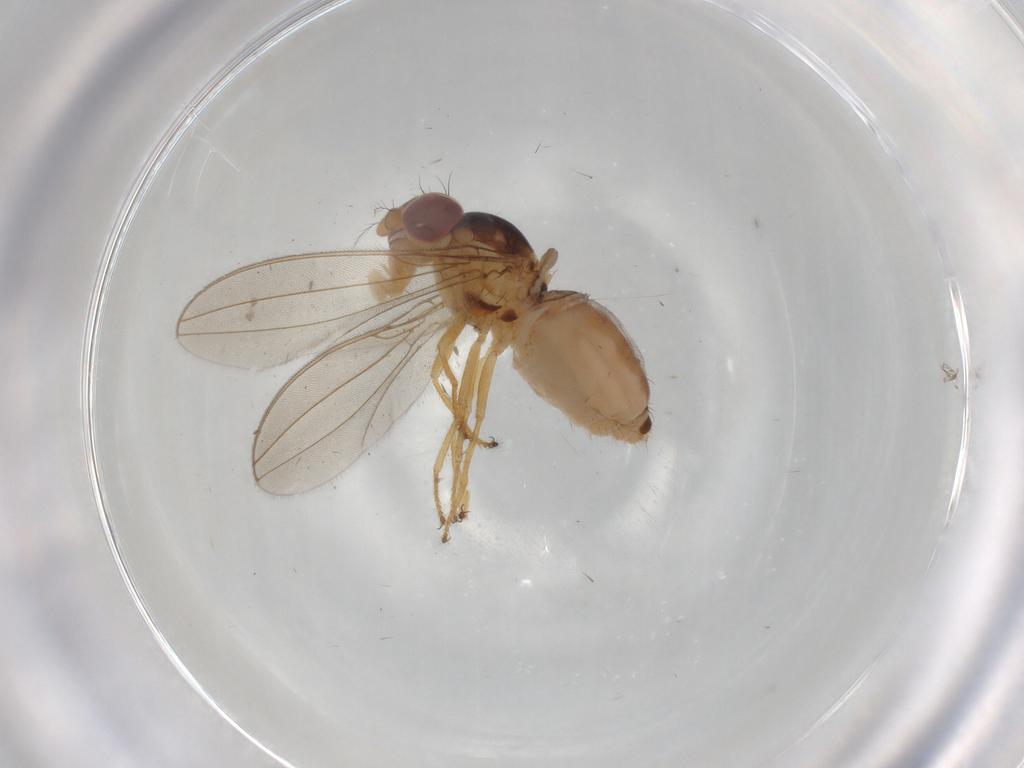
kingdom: Animalia
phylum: Arthropoda
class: Insecta
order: Diptera
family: Asteiidae
